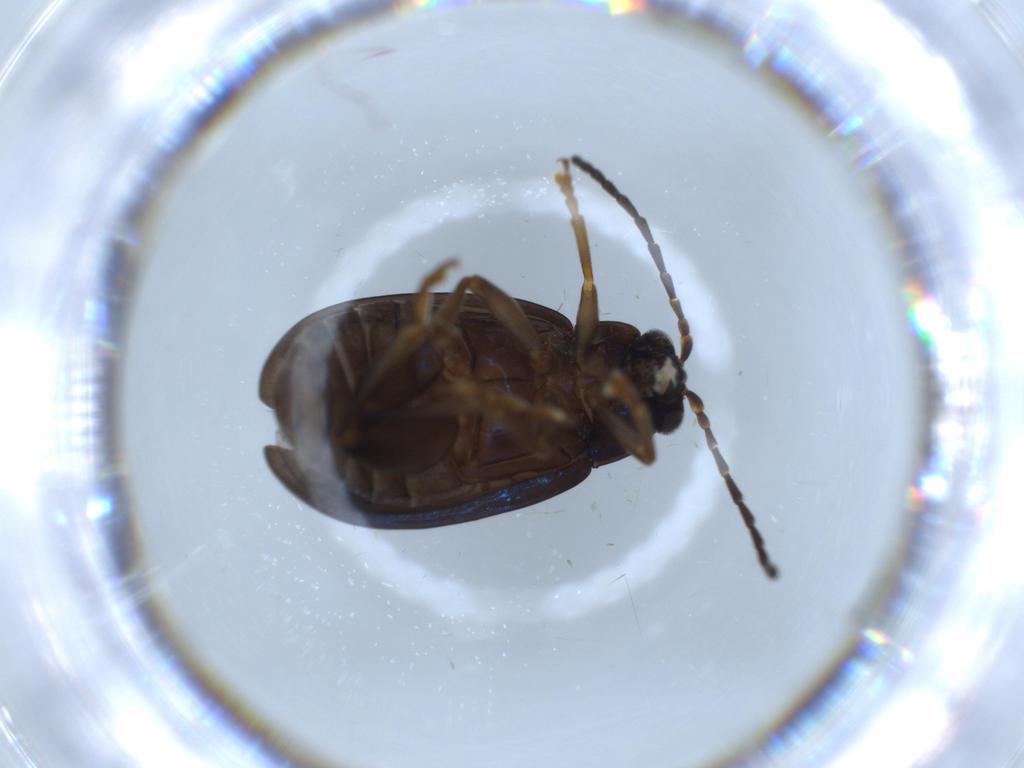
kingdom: Animalia
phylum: Arthropoda
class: Insecta
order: Coleoptera
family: Chrysomelidae
